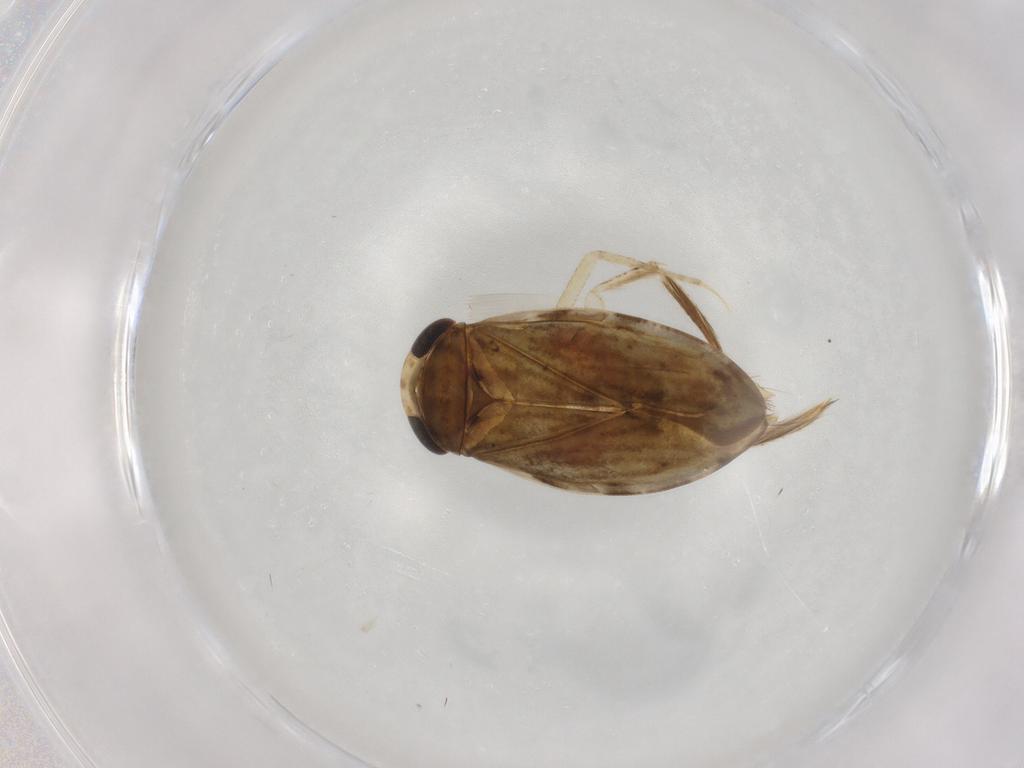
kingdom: Animalia
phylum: Arthropoda
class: Insecta
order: Hemiptera
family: Corixidae
